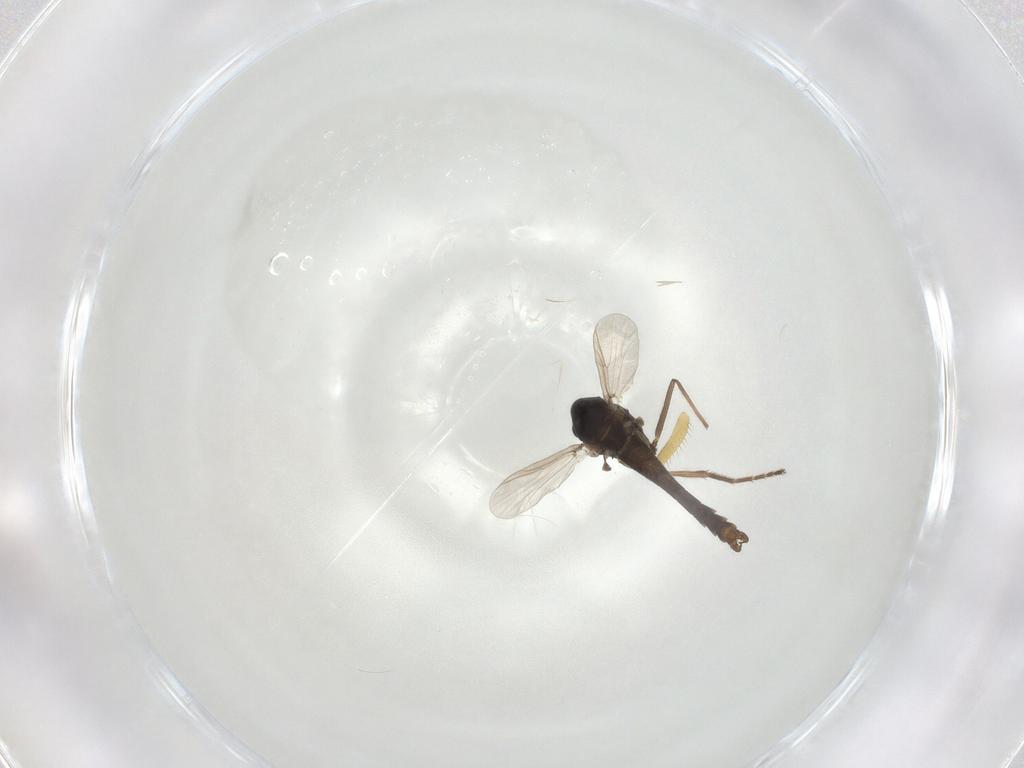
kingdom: Animalia
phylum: Arthropoda
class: Insecta
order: Diptera
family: Chironomidae
